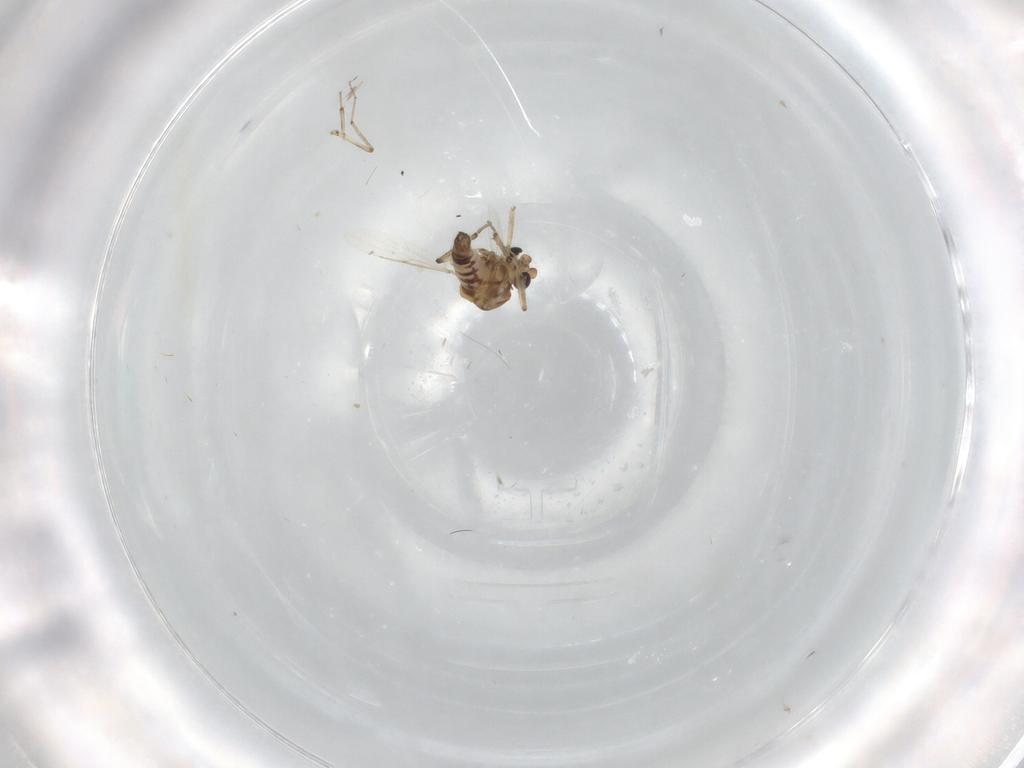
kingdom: Animalia
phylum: Arthropoda
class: Insecta
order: Diptera
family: Ceratopogonidae
